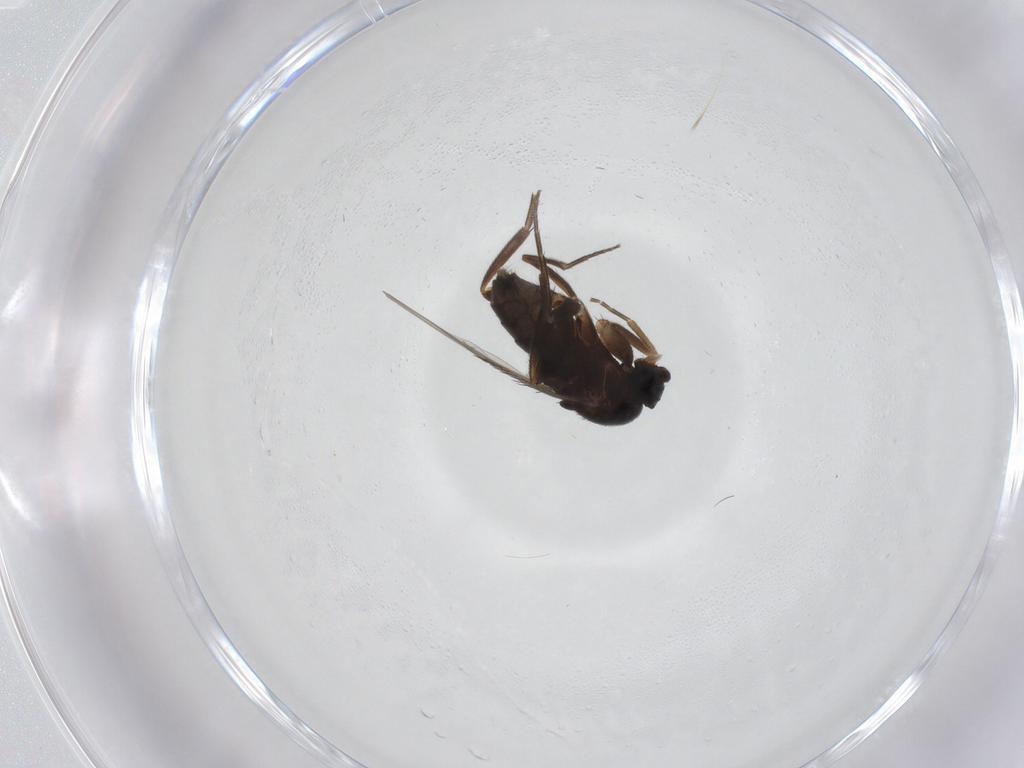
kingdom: Animalia
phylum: Arthropoda
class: Insecta
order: Diptera
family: Phoridae
